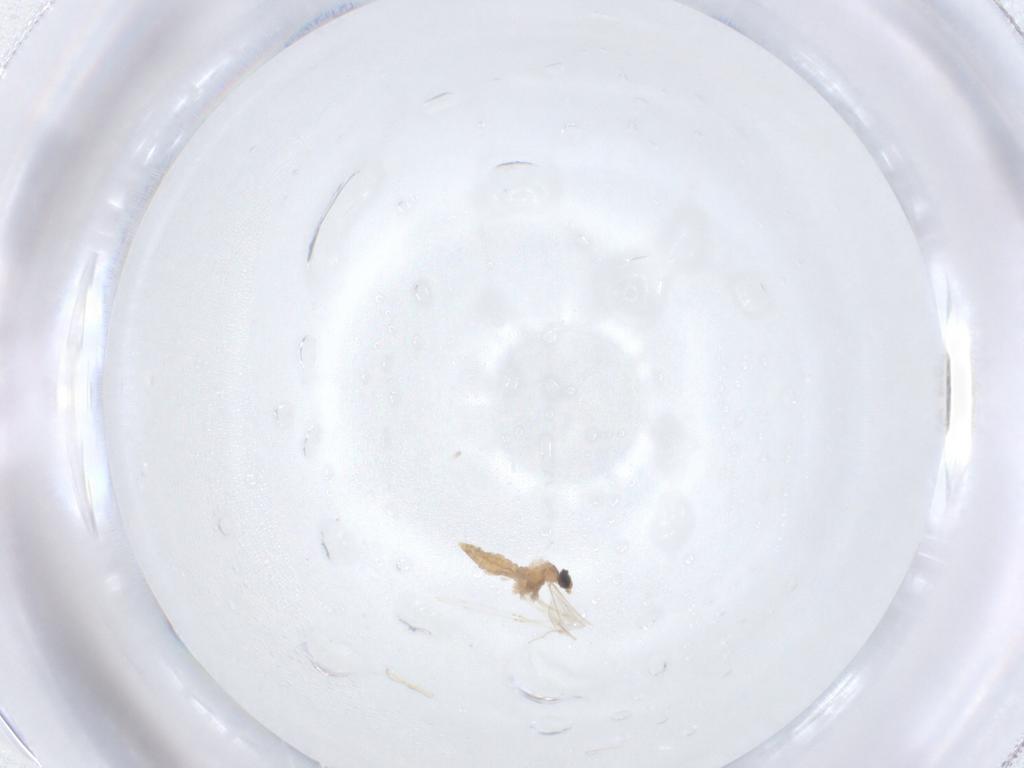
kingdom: Animalia
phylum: Arthropoda
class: Insecta
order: Diptera
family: Cecidomyiidae
